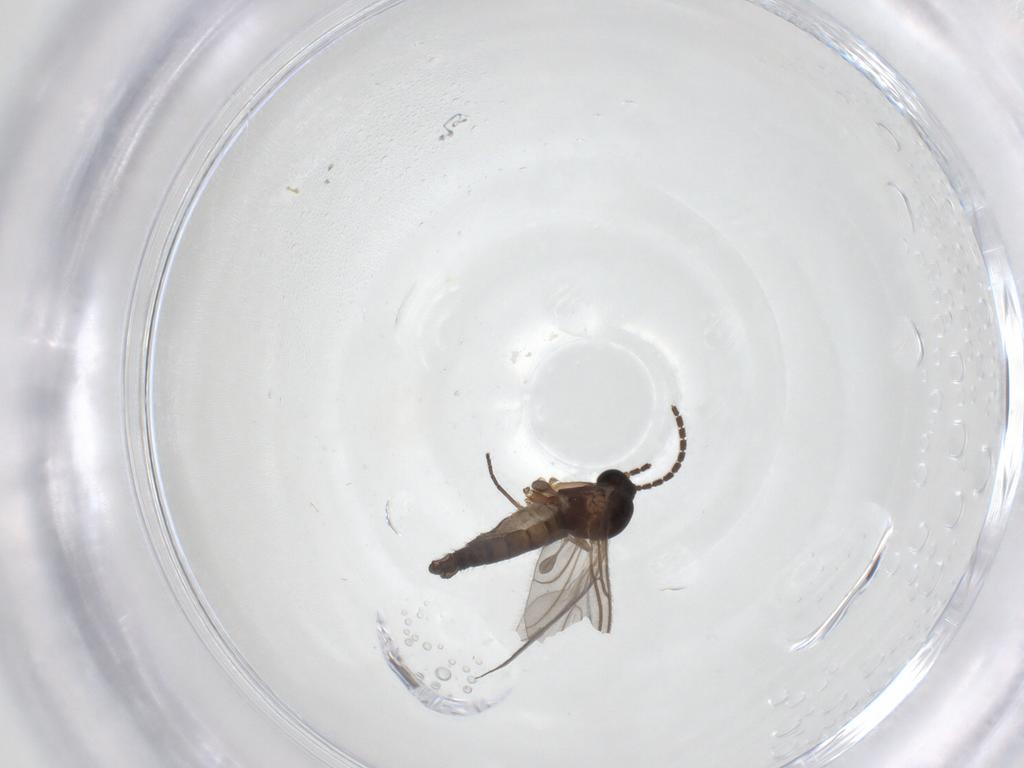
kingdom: Animalia
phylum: Arthropoda
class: Insecta
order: Diptera
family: Sciaridae
